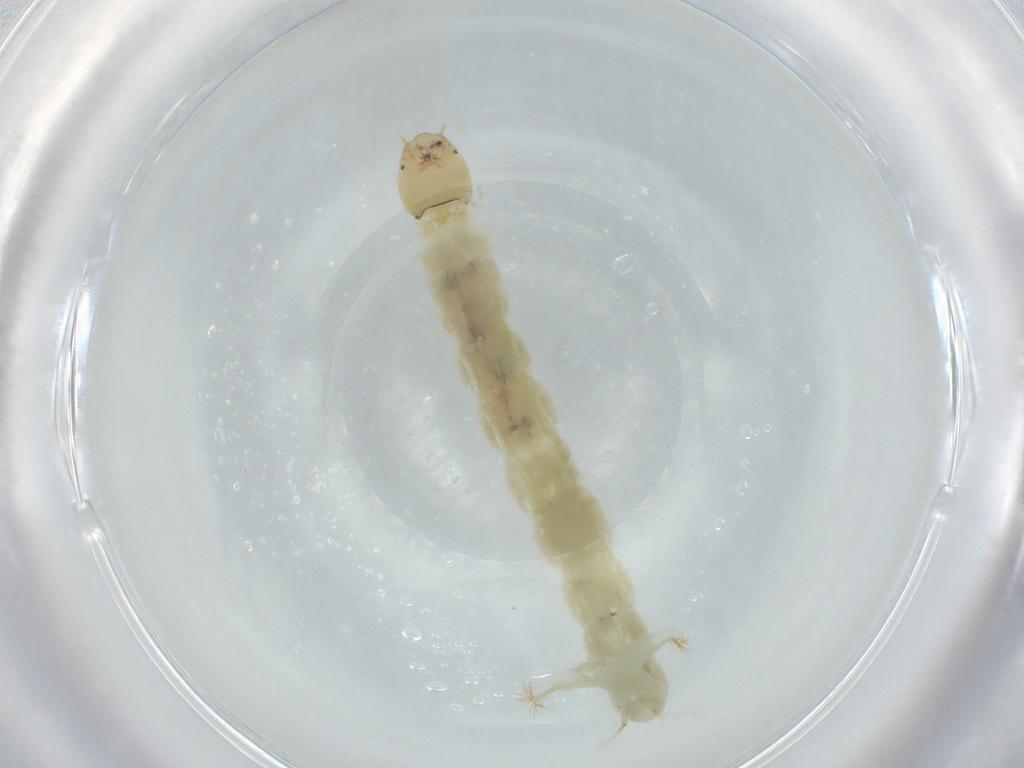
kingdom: Animalia
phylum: Arthropoda
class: Insecta
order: Diptera
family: Chironomidae
